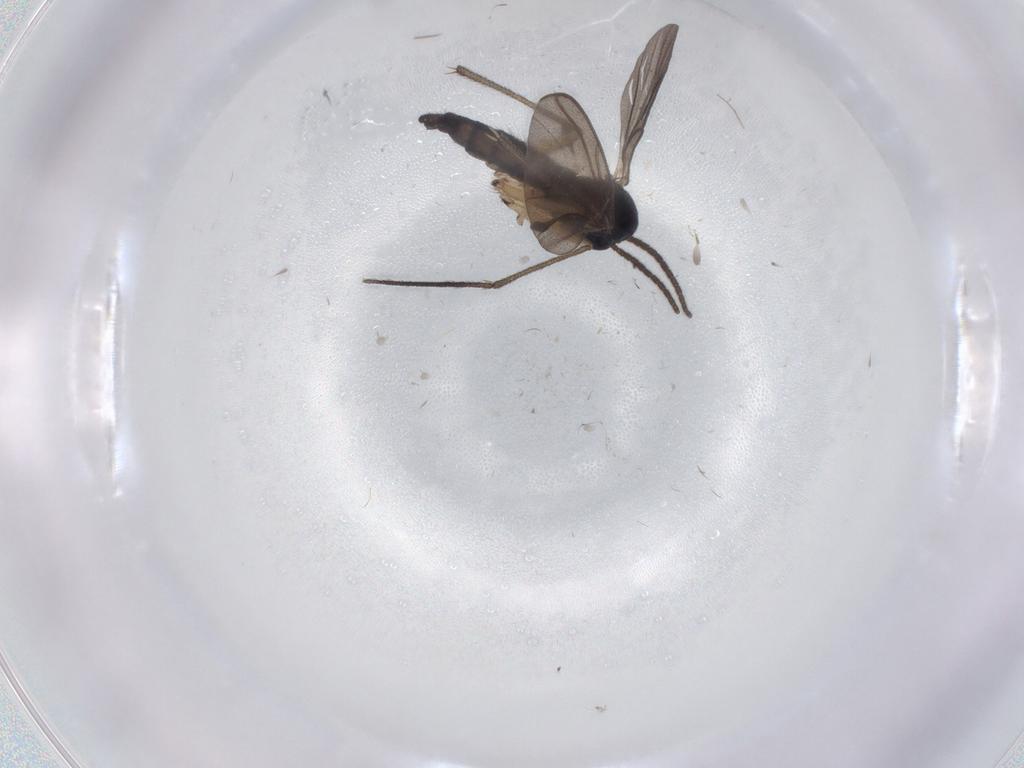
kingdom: Animalia
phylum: Arthropoda
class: Insecta
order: Diptera
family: Sciaridae
